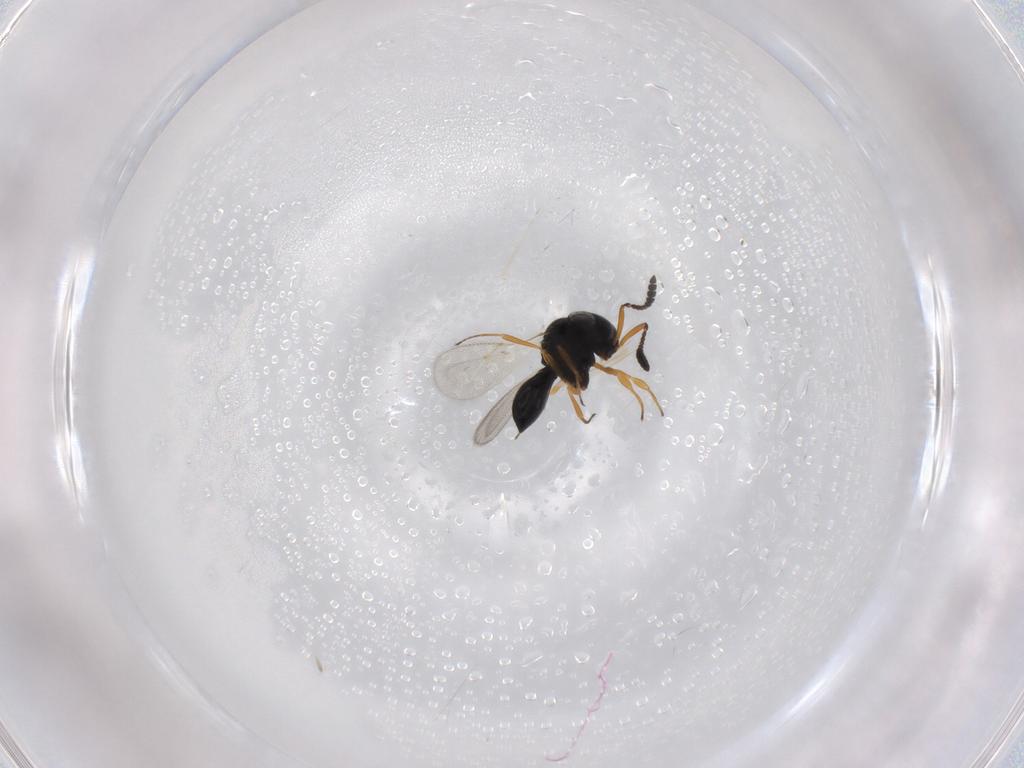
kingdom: Animalia
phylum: Arthropoda
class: Insecta
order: Hymenoptera
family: Scelionidae
